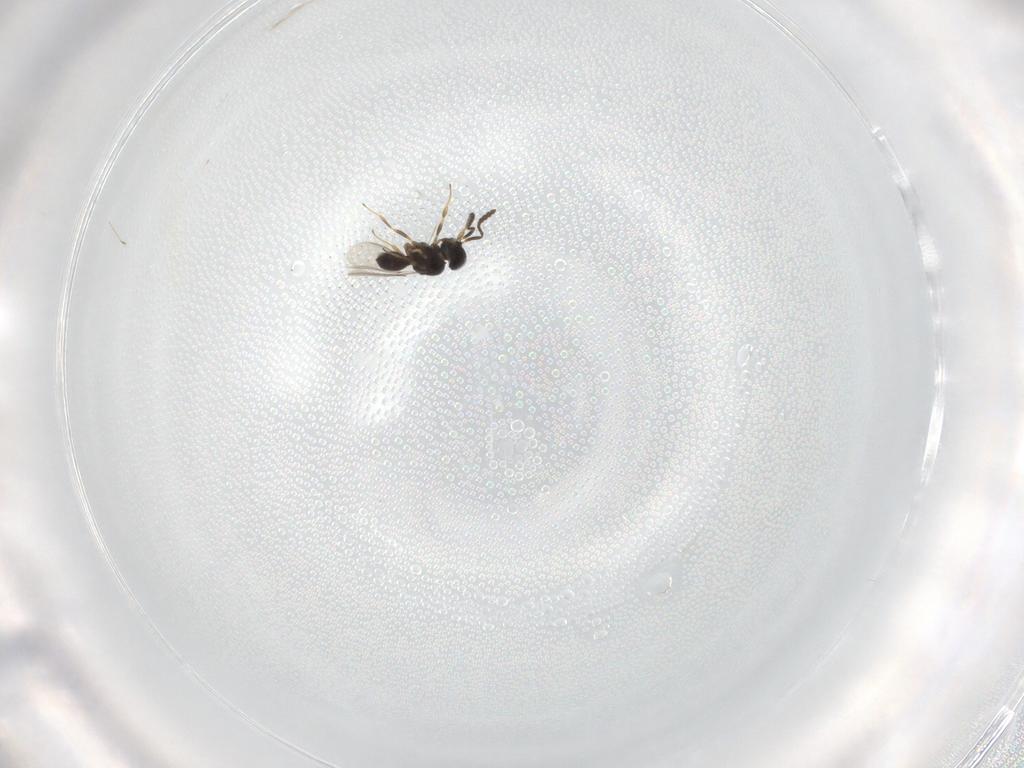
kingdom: Animalia
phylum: Arthropoda
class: Insecta
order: Hymenoptera
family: Scelionidae
